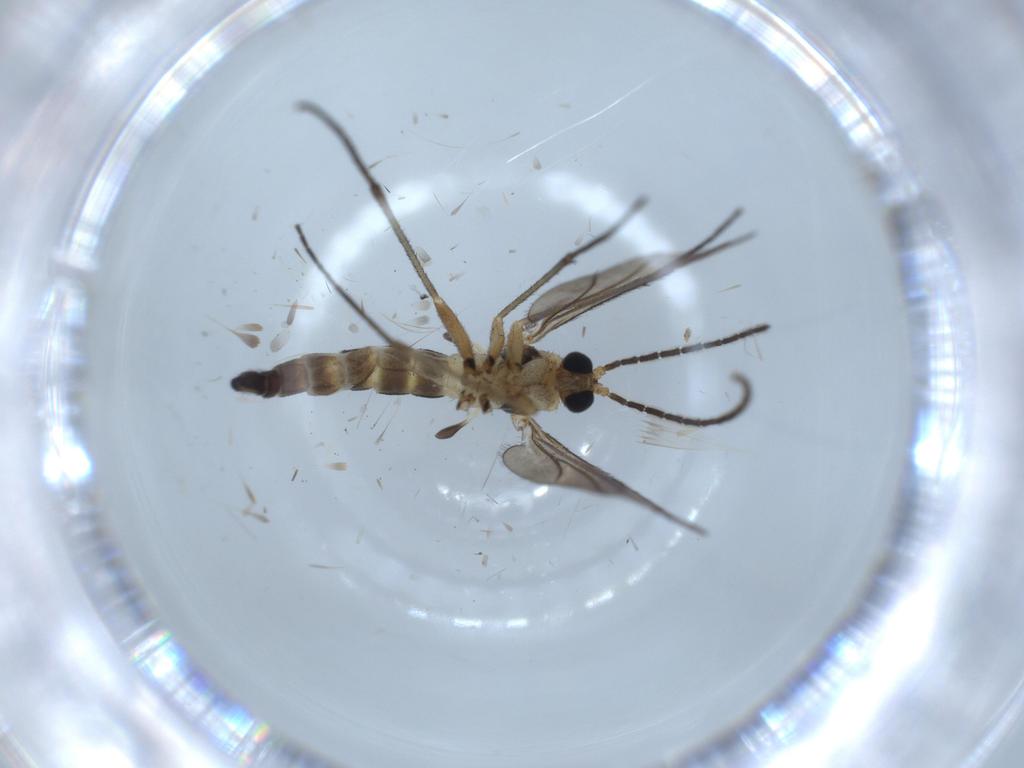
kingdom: Animalia
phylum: Arthropoda
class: Insecta
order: Diptera
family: Sciaridae
